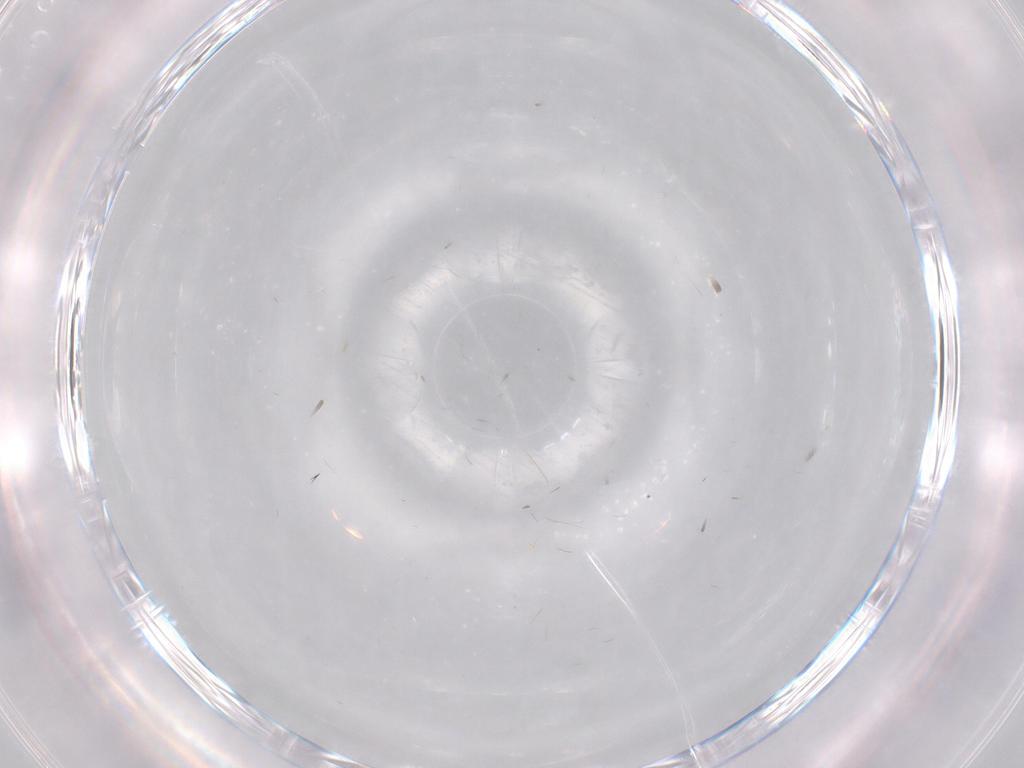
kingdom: Animalia
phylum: Arthropoda
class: Insecta
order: Diptera
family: Limoniidae
